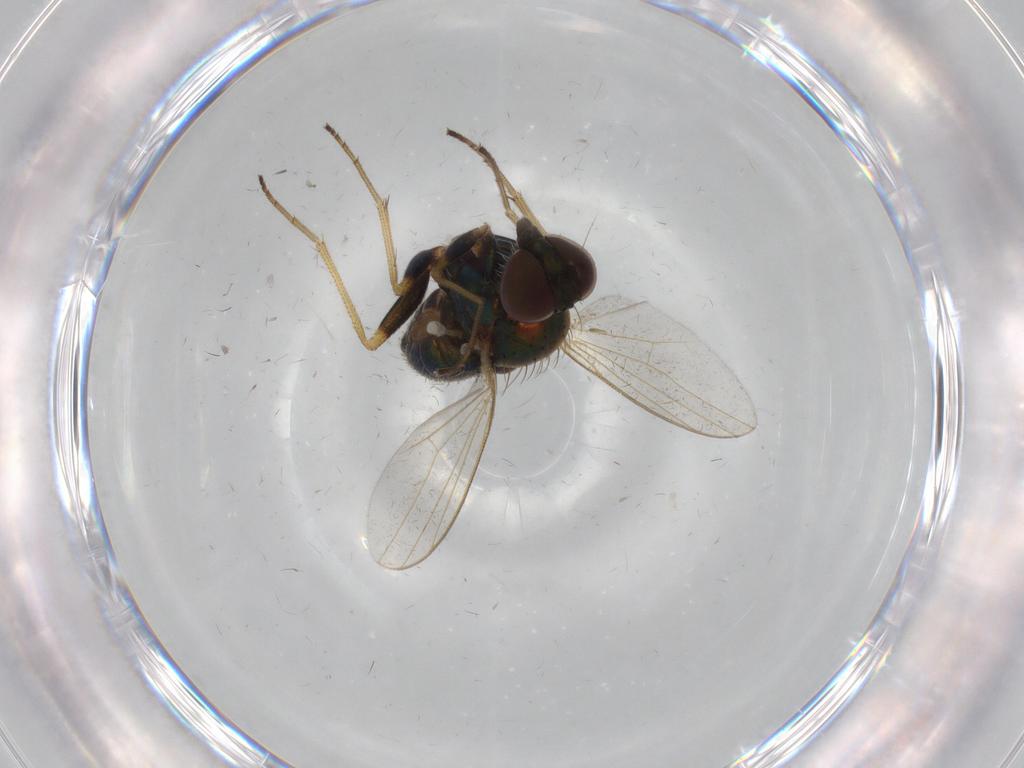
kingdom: Animalia
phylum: Arthropoda
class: Insecta
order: Diptera
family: Dolichopodidae
